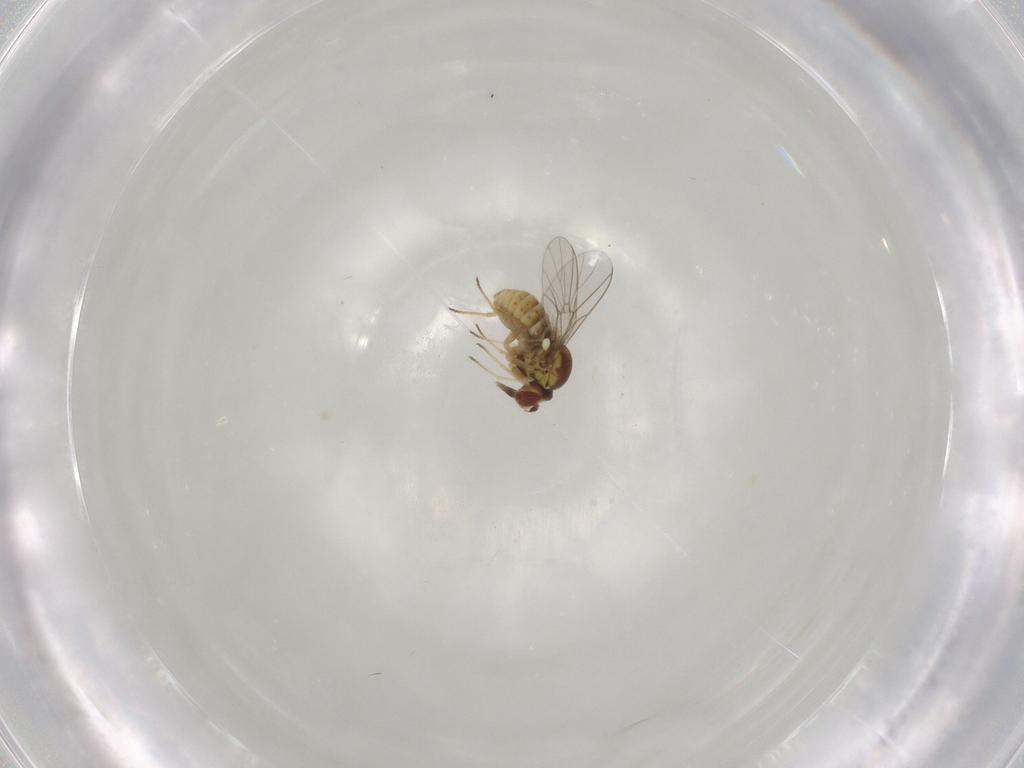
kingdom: Animalia
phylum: Arthropoda
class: Insecta
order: Diptera
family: Mythicomyiidae
